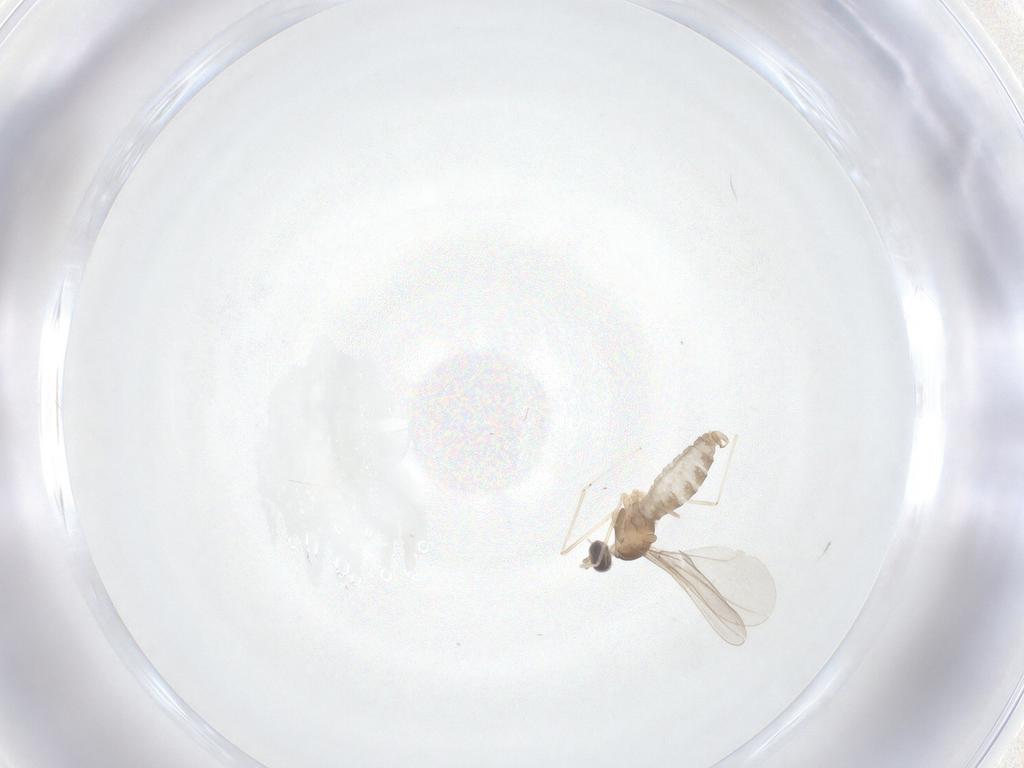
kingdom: Animalia
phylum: Arthropoda
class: Insecta
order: Diptera
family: Cecidomyiidae
